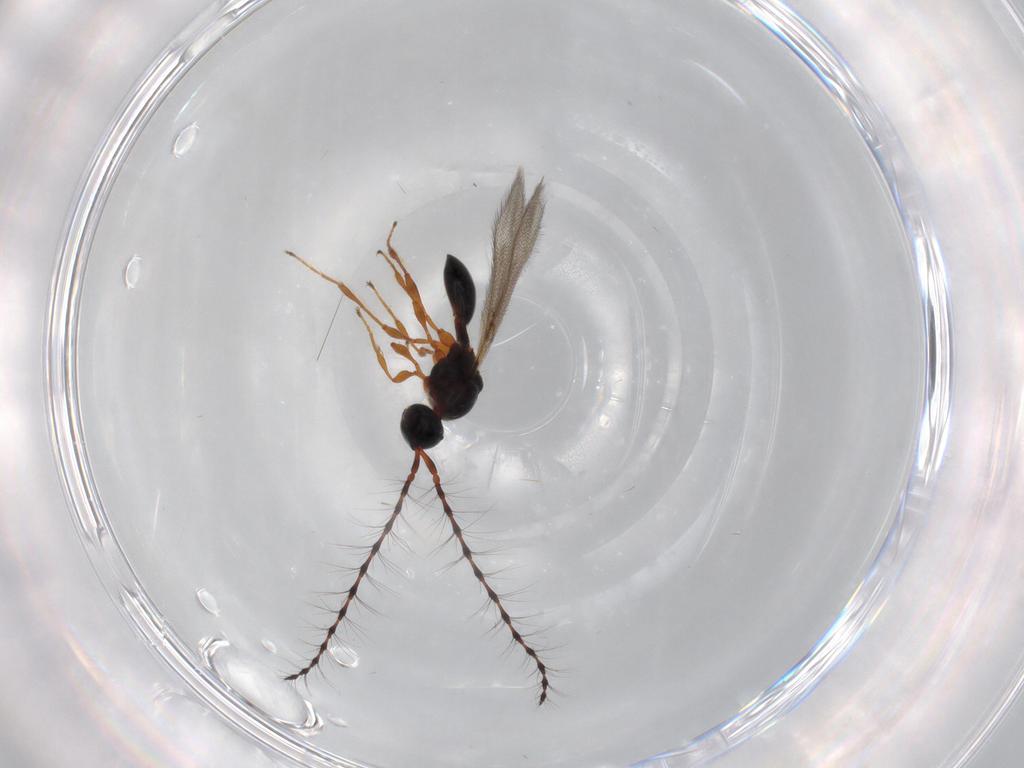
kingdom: Animalia
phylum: Arthropoda
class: Insecta
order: Hymenoptera
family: Diapriidae
